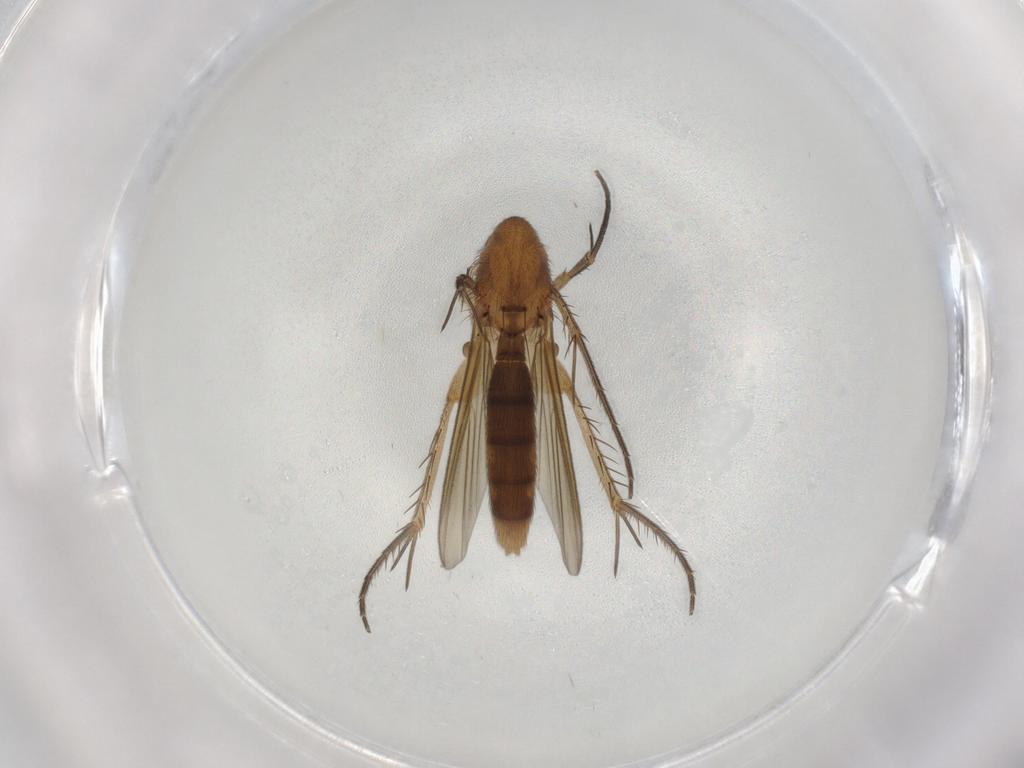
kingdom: Animalia
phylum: Arthropoda
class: Insecta
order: Diptera
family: Mycetophilidae
